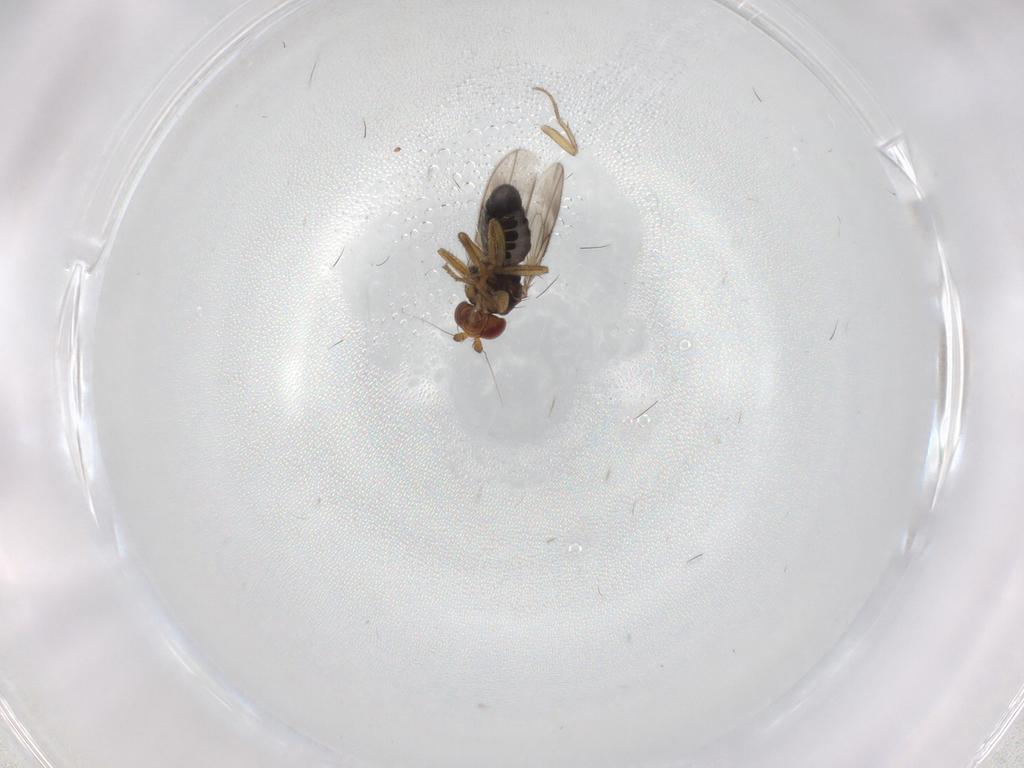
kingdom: Animalia
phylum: Arthropoda
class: Insecta
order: Diptera
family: Sphaeroceridae
